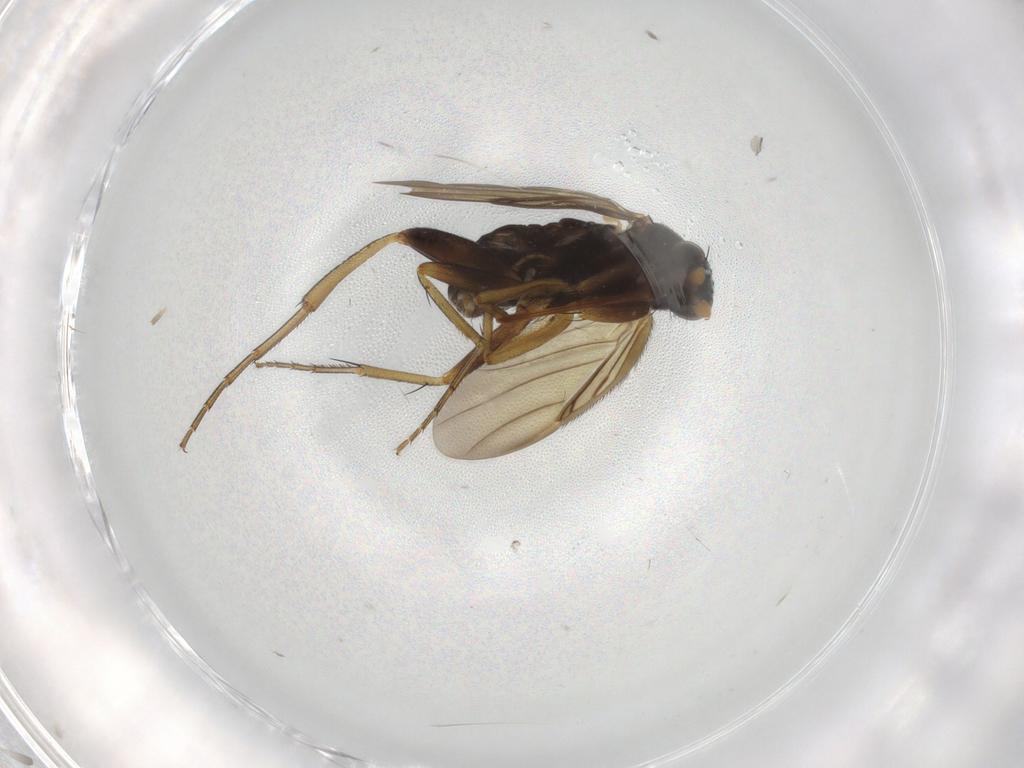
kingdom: Animalia
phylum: Arthropoda
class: Insecta
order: Diptera
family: Phoridae
